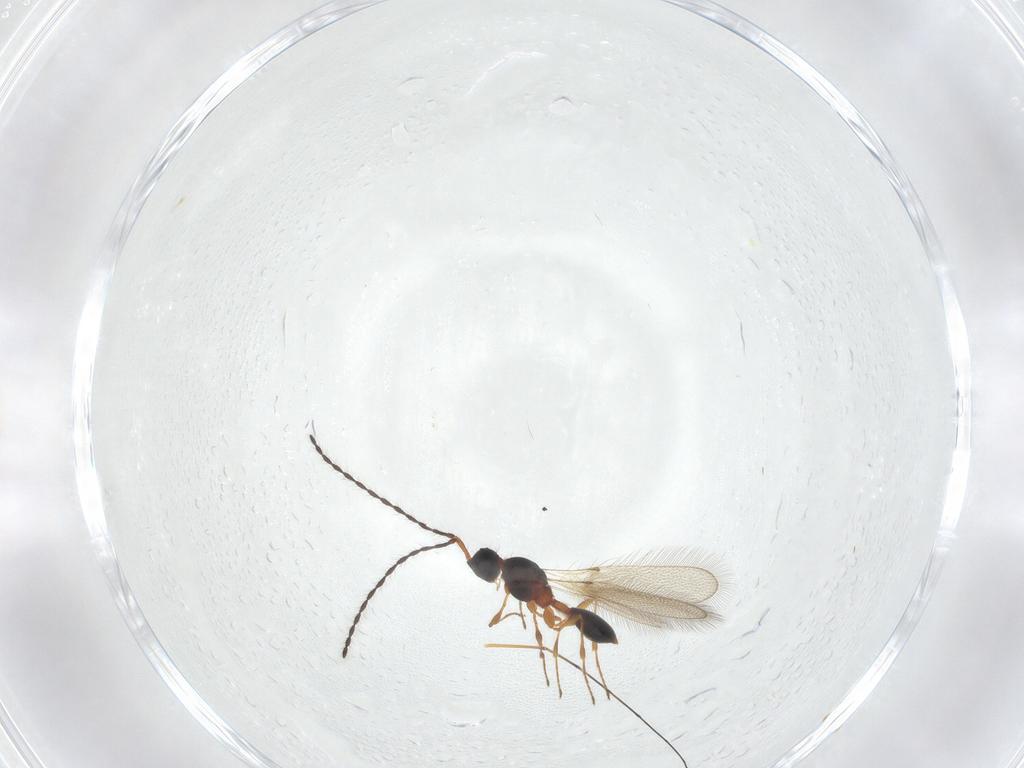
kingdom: Animalia
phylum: Arthropoda
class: Insecta
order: Hymenoptera
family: Diapriidae
